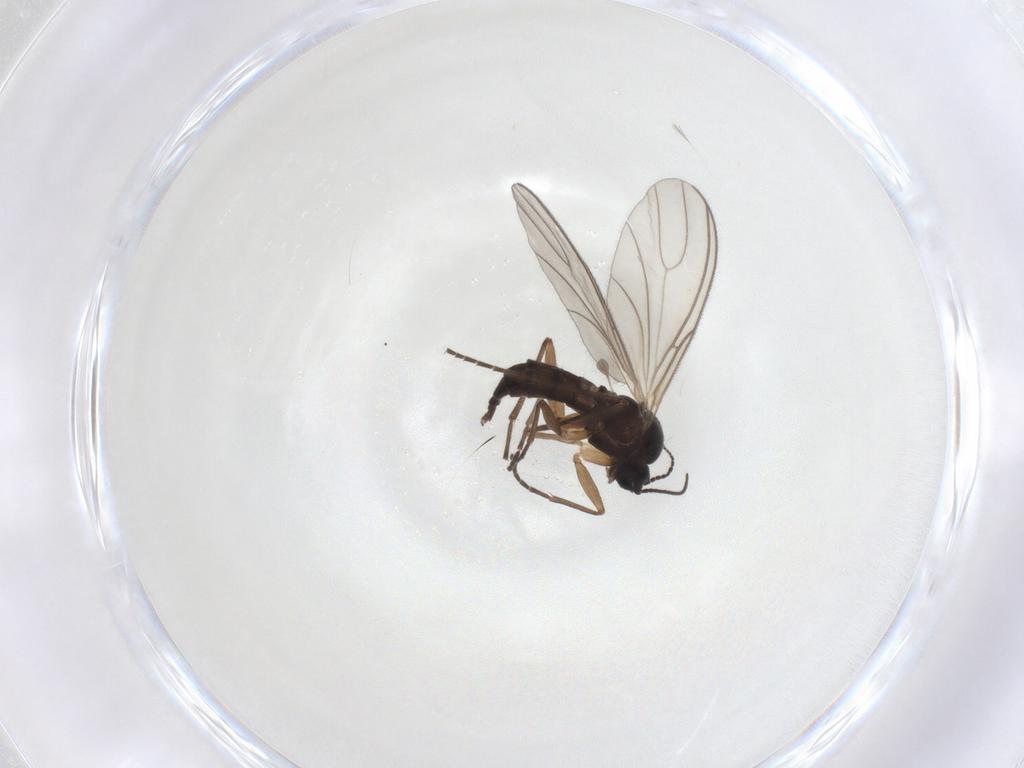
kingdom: Animalia
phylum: Arthropoda
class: Insecta
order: Diptera
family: Sciaridae
